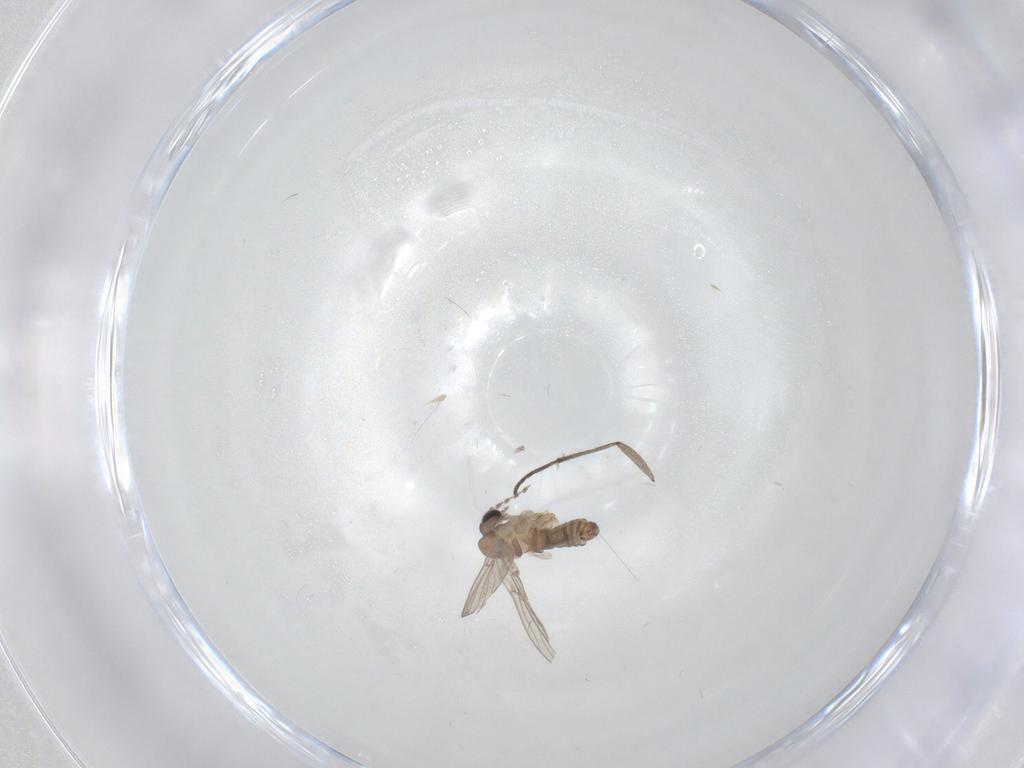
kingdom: Animalia
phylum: Arthropoda
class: Insecta
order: Diptera
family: Sciaridae
